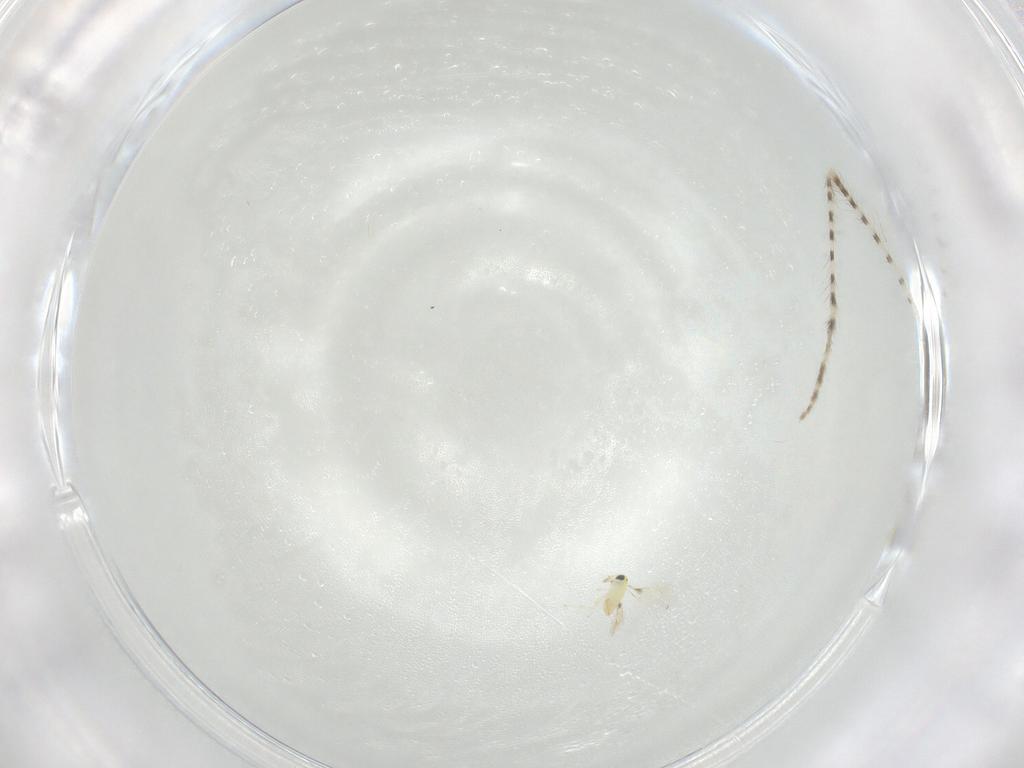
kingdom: Animalia
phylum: Arthropoda
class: Insecta
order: Hymenoptera
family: Trichogrammatidae
